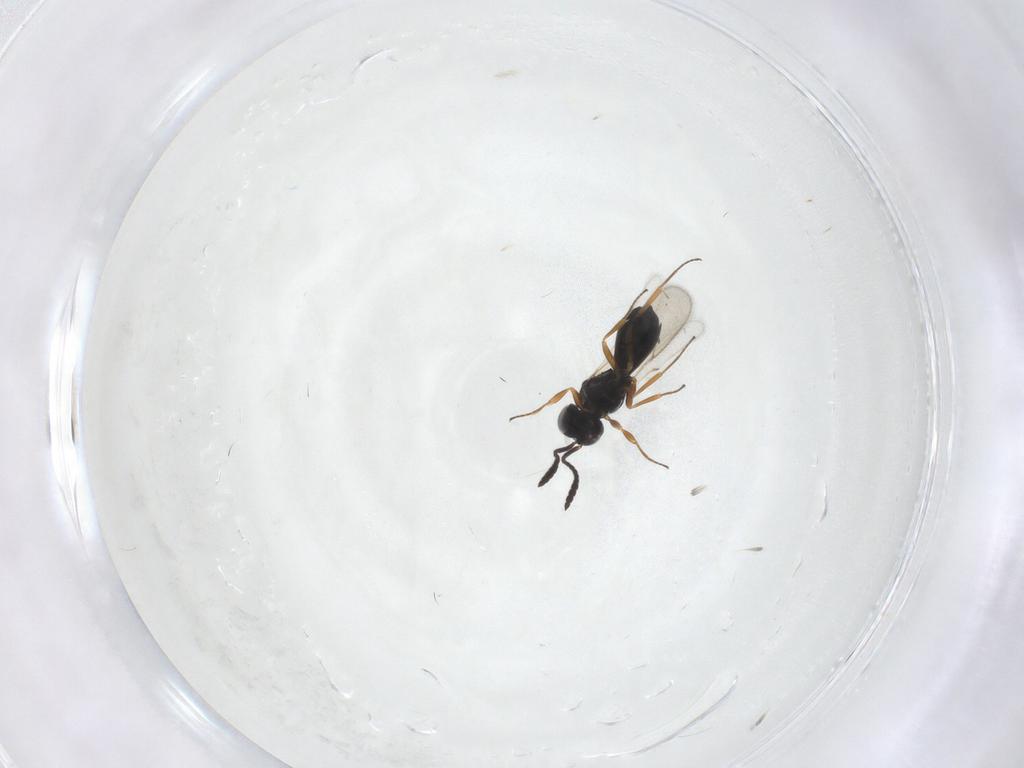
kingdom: Animalia
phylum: Arthropoda
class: Insecta
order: Hymenoptera
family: Scelionidae
